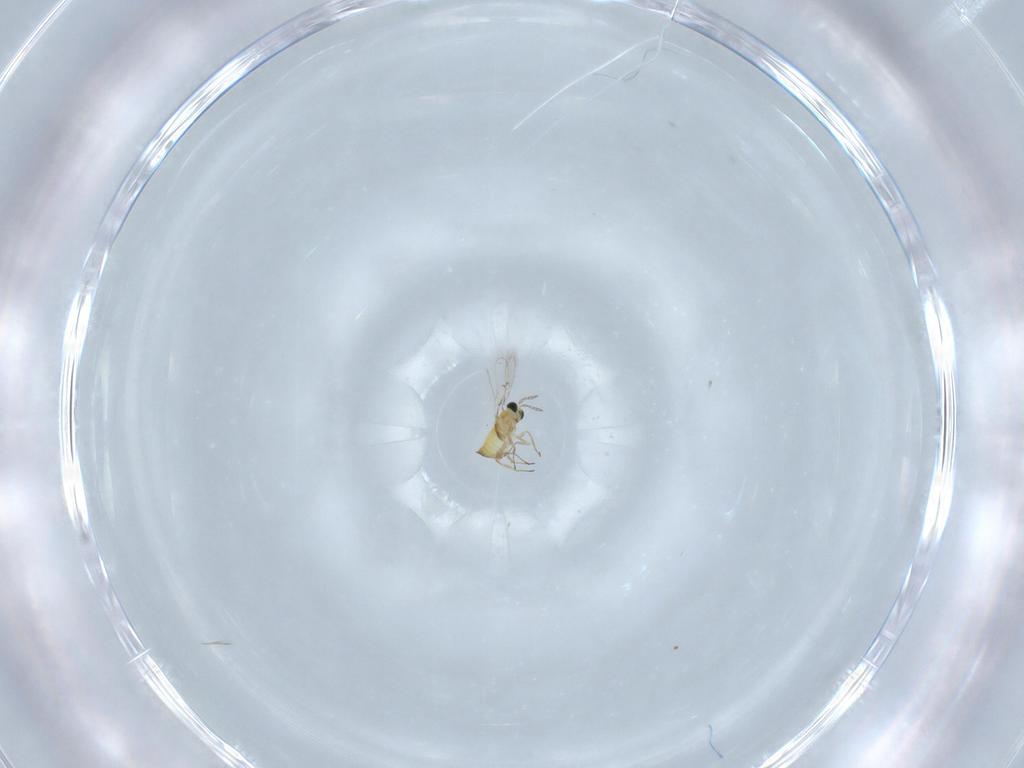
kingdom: Animalia
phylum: Arthropoda
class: Insecta
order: Hymenoptera
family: Trichogrammatidae
